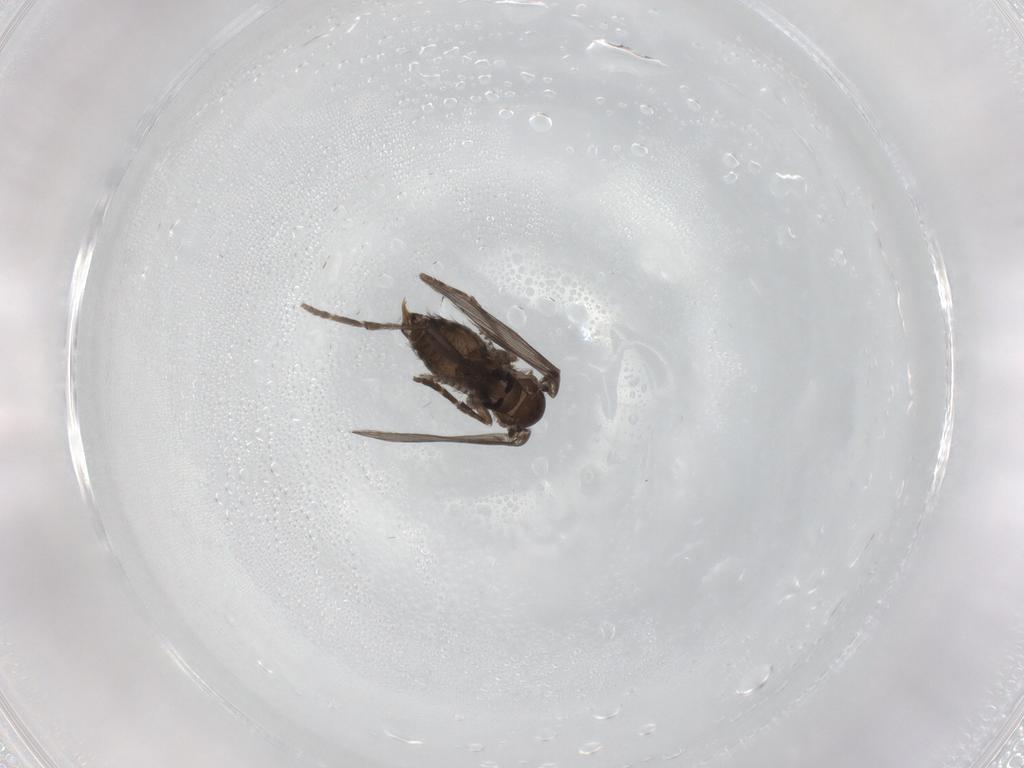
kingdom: Animalia
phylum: Arthropoda
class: Insecta
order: Diptera
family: Psychodidae
